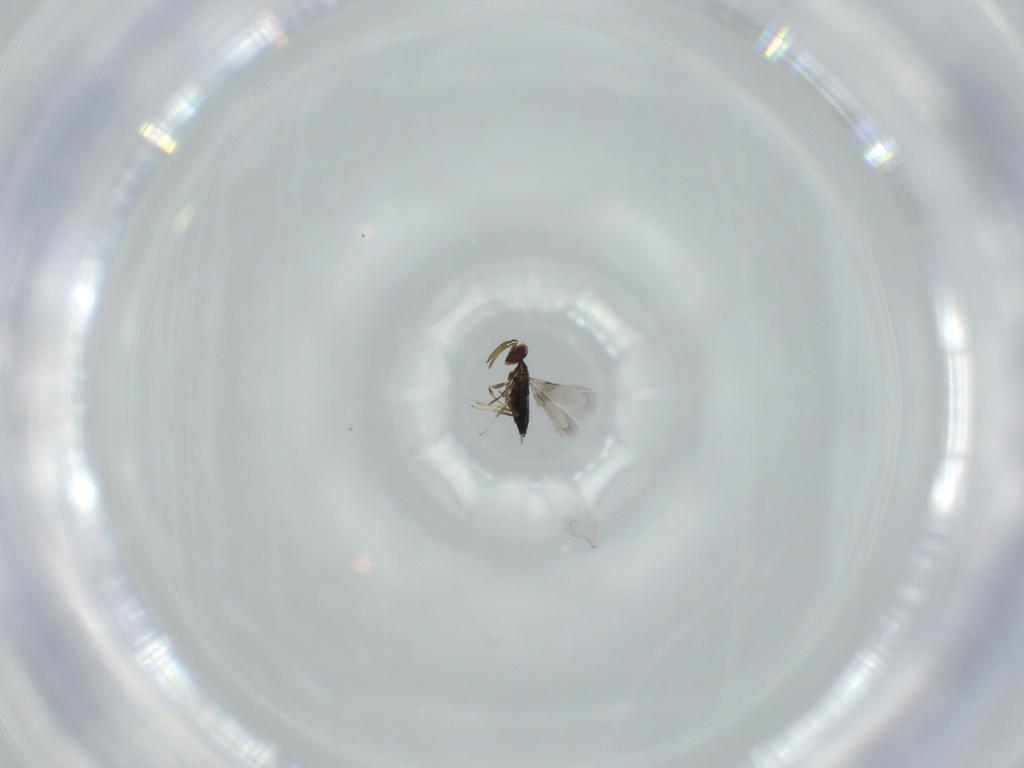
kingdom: Animalia
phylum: Arthropoda
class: Insecta
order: Hymenoptera
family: Signiphoridae
